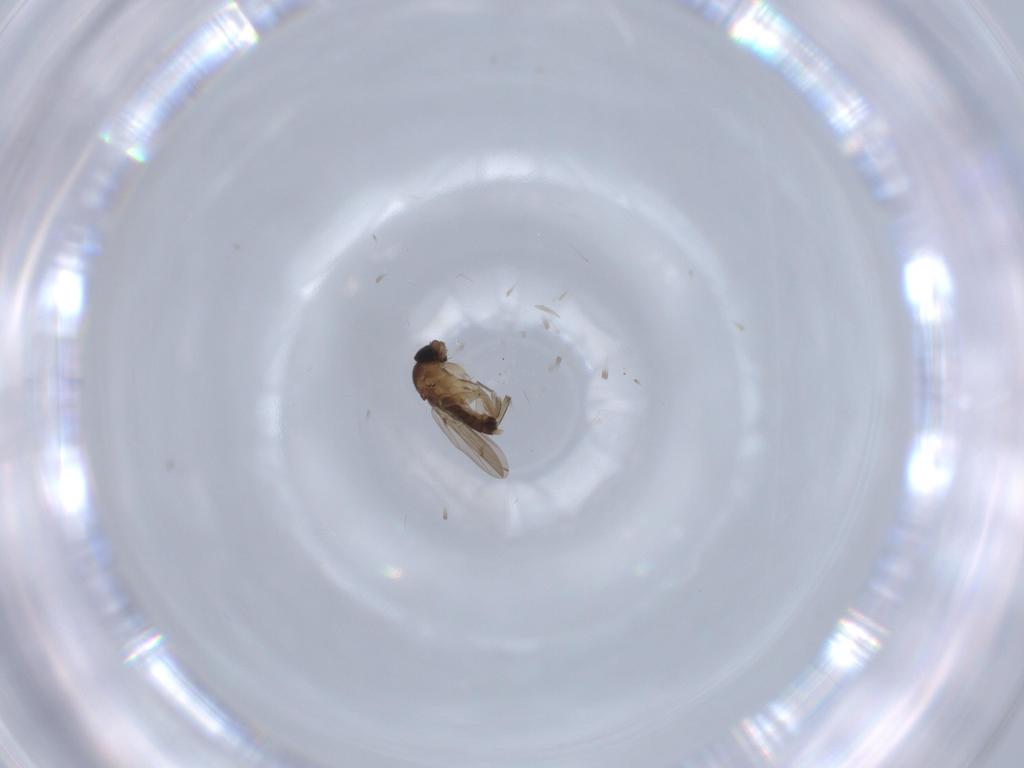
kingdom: Animalia
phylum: Arthropoda
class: Insecta
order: Diptera
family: Phoridae
